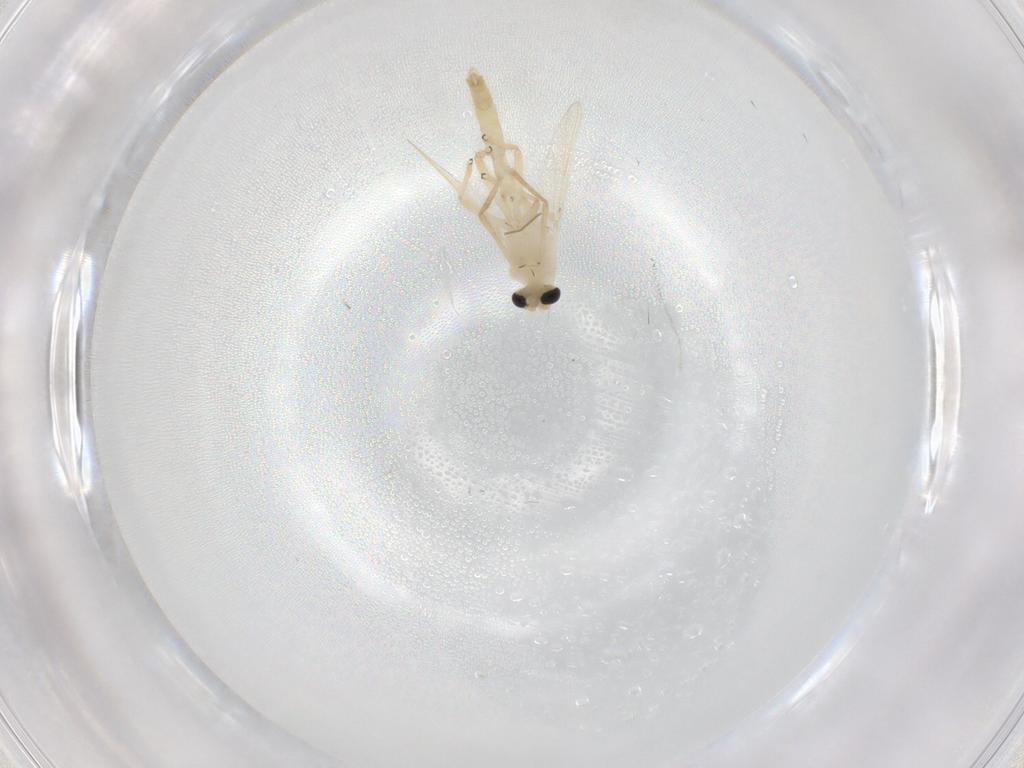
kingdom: Animalia
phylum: Arthropoda
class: Insecta
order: Diptera
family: Chironomidae
